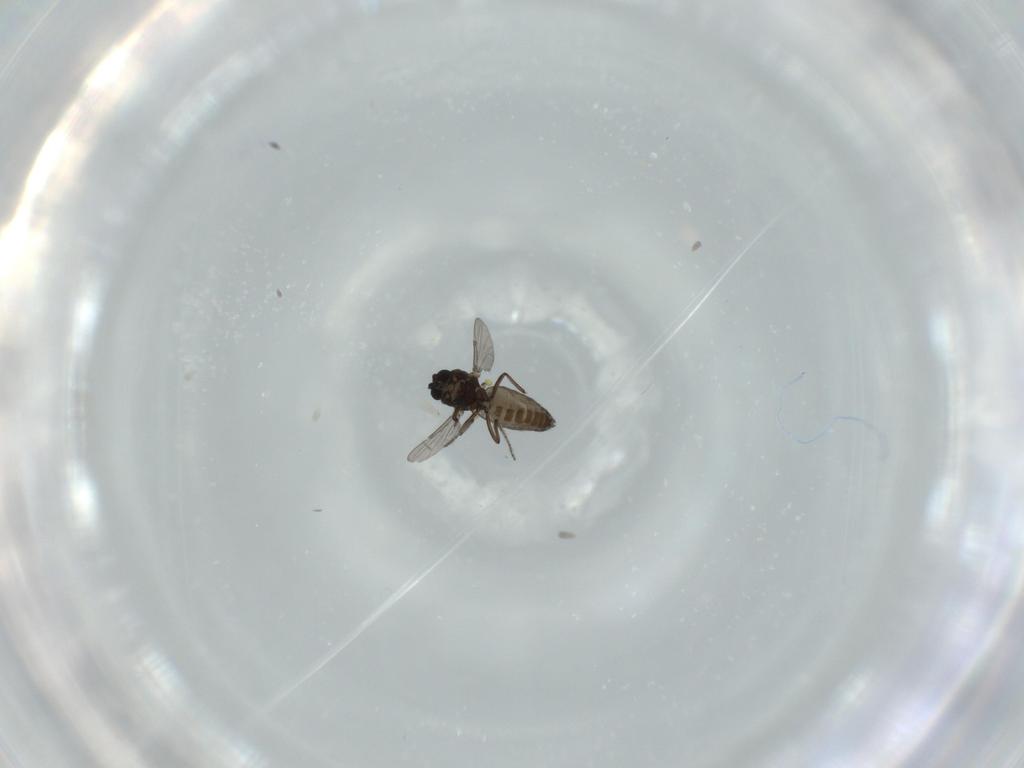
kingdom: Animalia
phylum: Arthropoda
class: Insecta
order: Diptera
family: Ceratopogonidae
